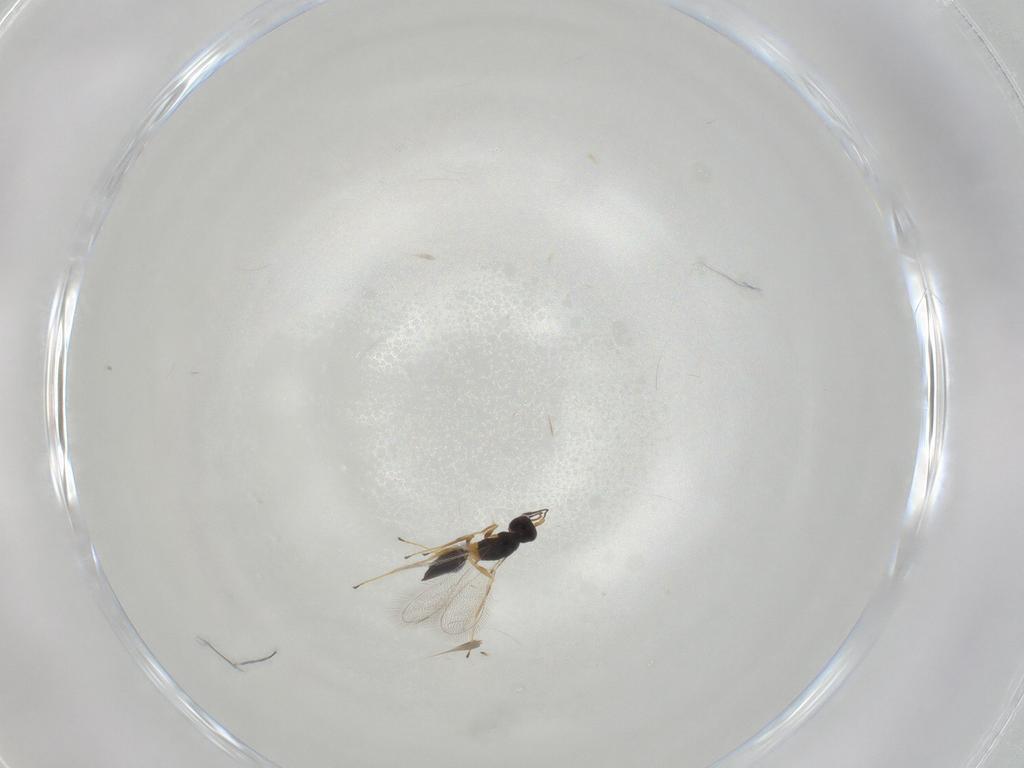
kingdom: Animalia
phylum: Arthropoda
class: Insecta
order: Hymenoptera
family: Mymaridae
